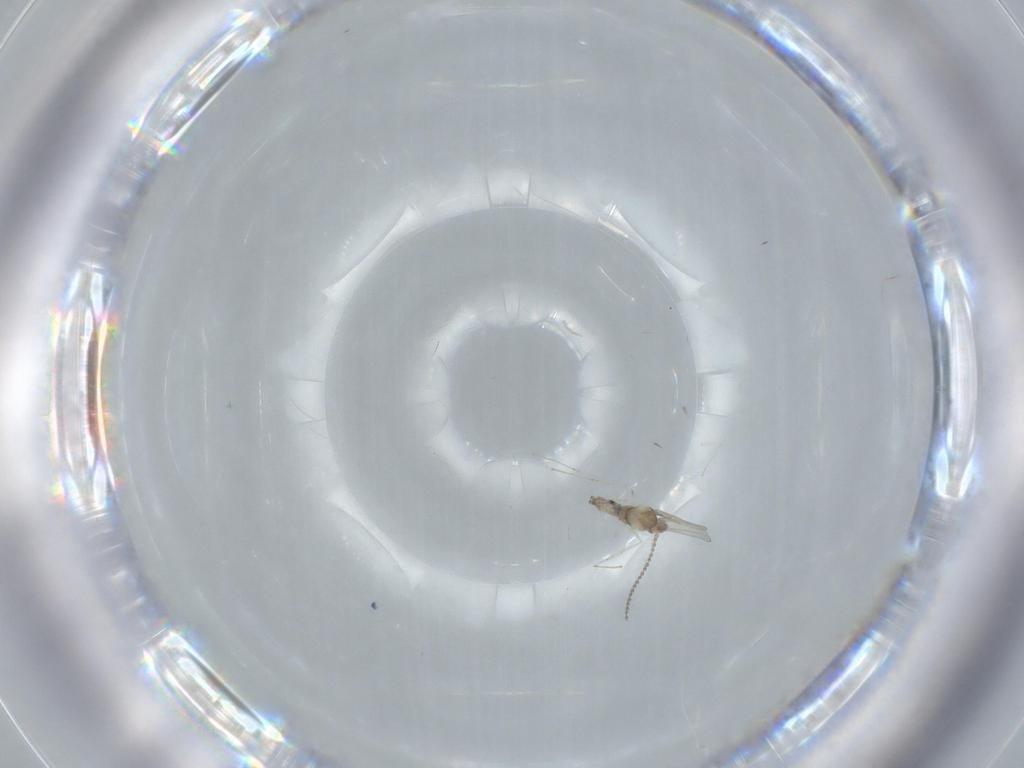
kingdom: Animalia
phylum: Arthropoda
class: Insecta
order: Diptera
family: Cecidomyiidae
